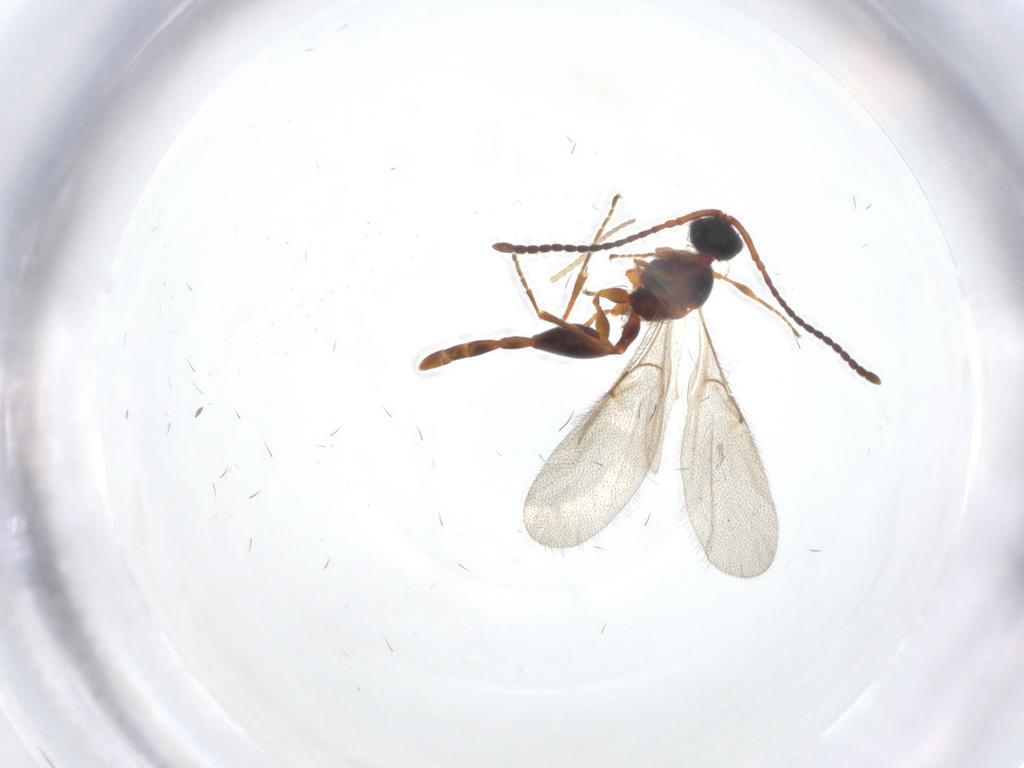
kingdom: Animalia
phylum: Arthropoda
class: Insecta
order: Hymenoptera
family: Diapriidae
